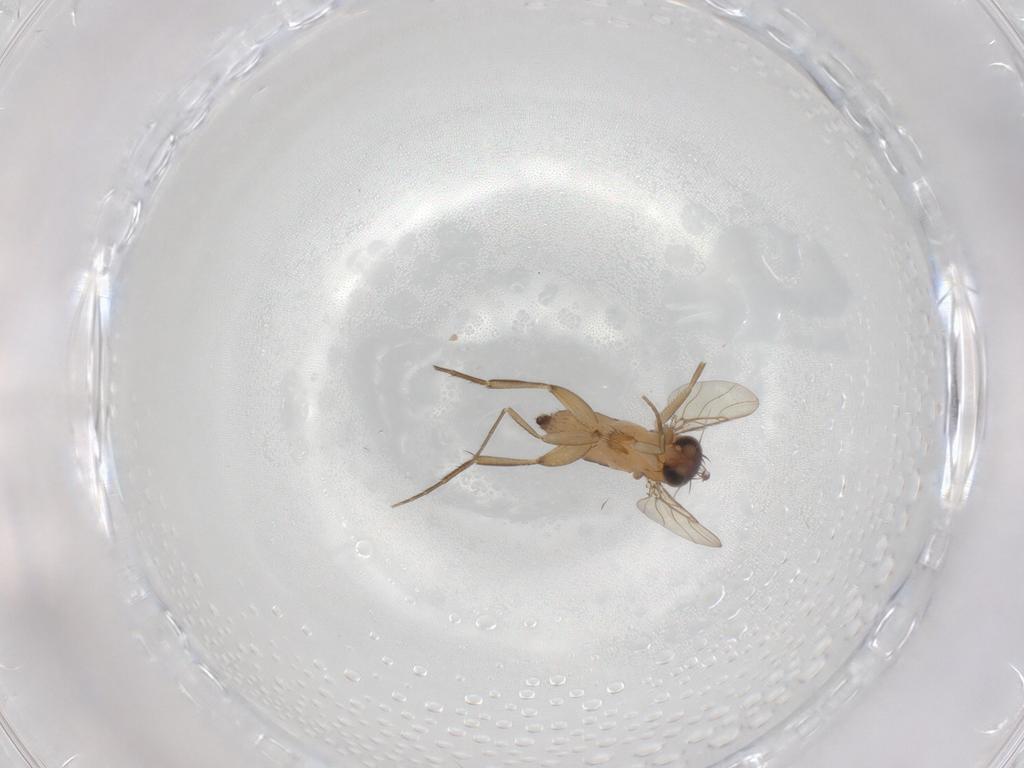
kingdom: Animalia
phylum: Arthropoda
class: Insecta
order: Diptera
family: Phoridae
